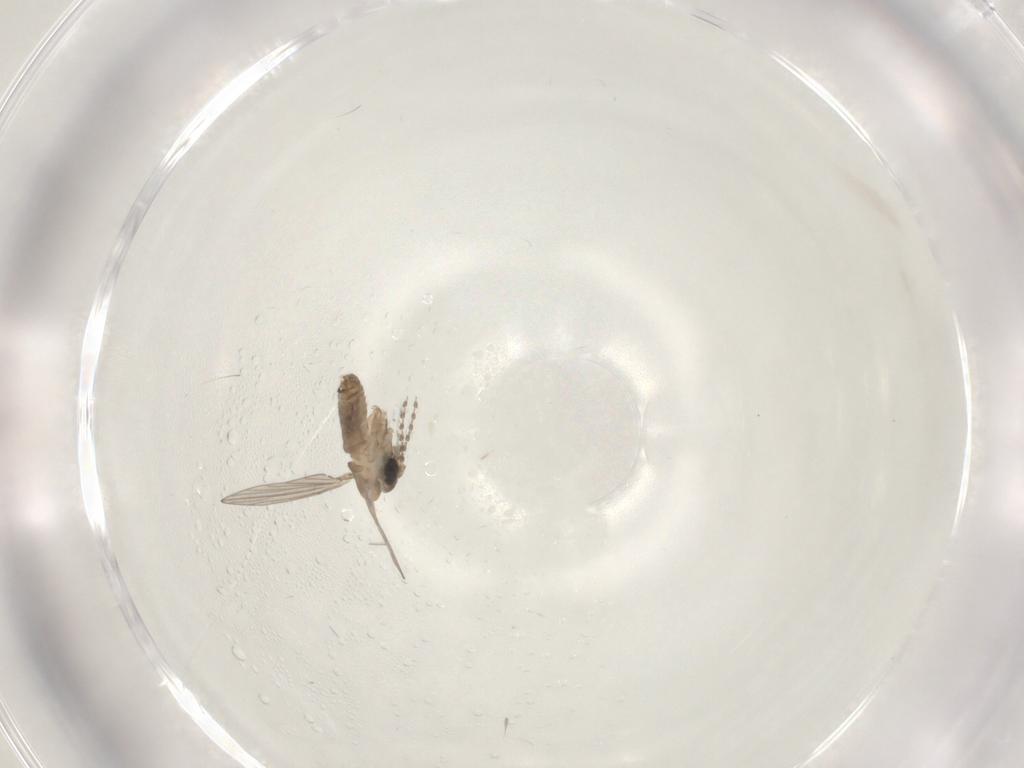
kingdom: Animalia
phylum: Arthropoda
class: Insecta
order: Diptera
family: Psychodidae
